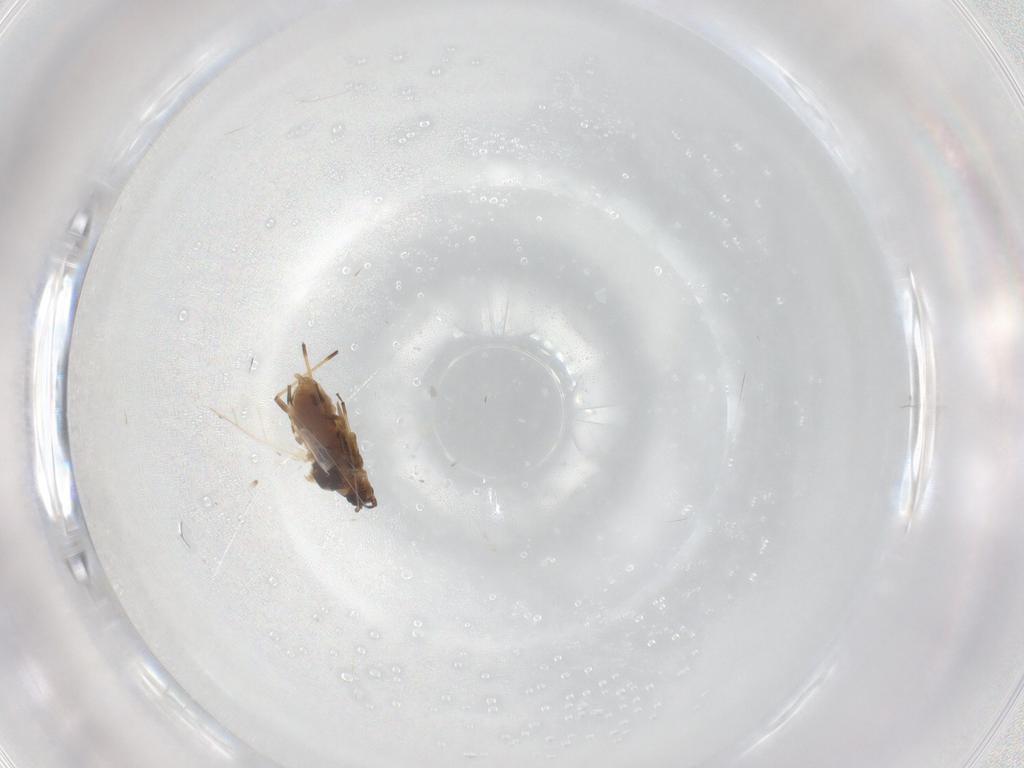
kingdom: Animalia
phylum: Arthropoda
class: Insecta
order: Hemiptera
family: Aphididae
